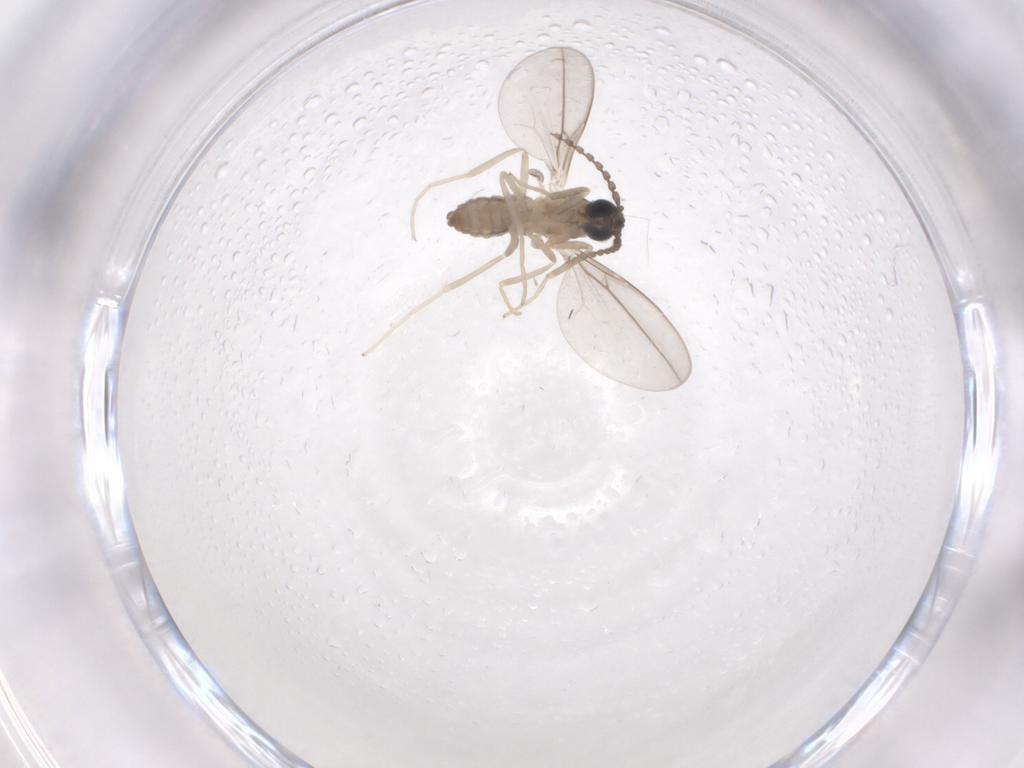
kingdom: Animalia
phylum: Arthropoda
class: Insecta
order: Diptera
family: Cecidomyiidae
